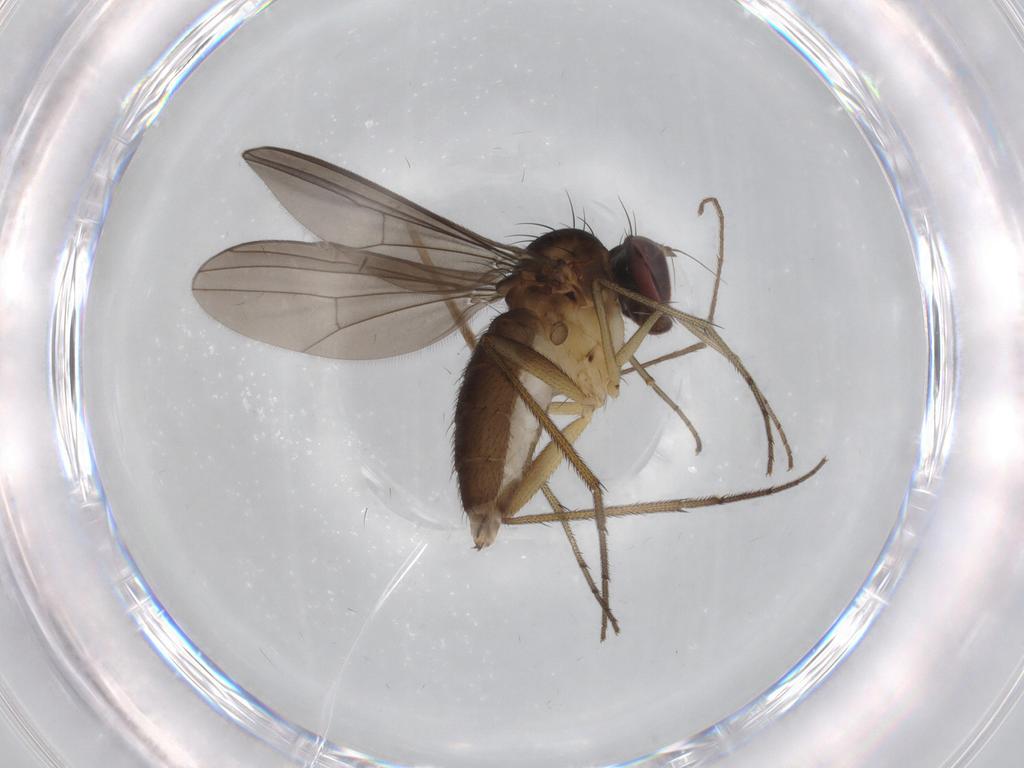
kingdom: Animalia
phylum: Arthropoda
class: Insecta
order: Diptera
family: Dolichopodidae
